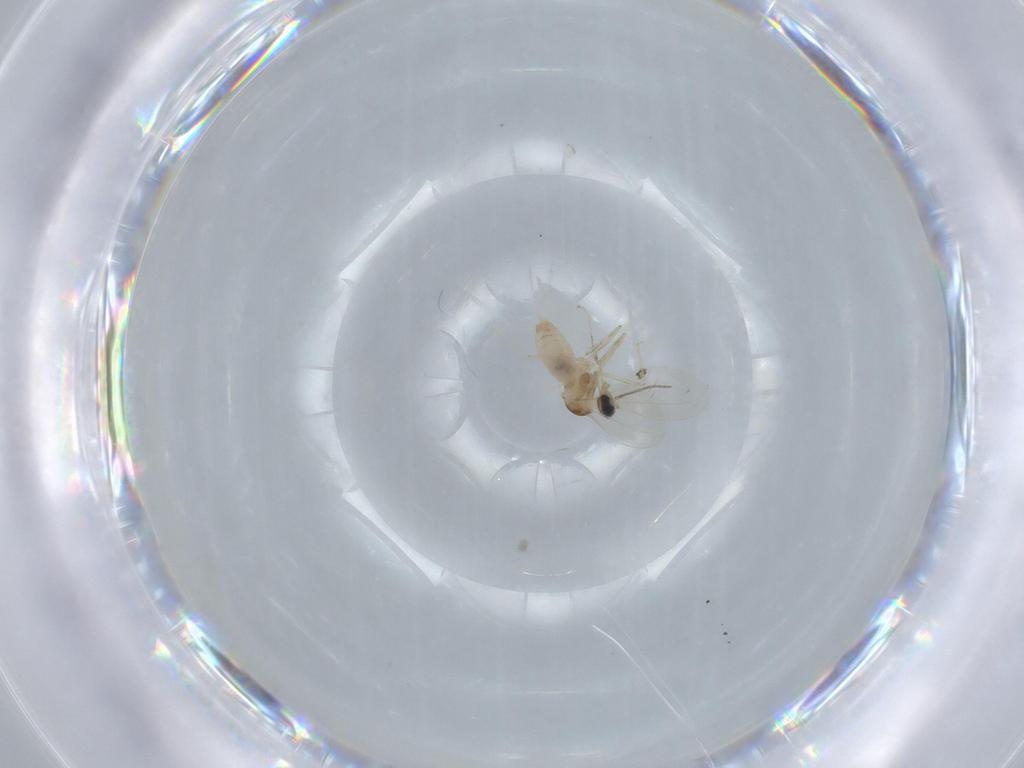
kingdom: Animalia
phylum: Arthropoda
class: Insecta
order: Diptera
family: Cecidomyiidae
